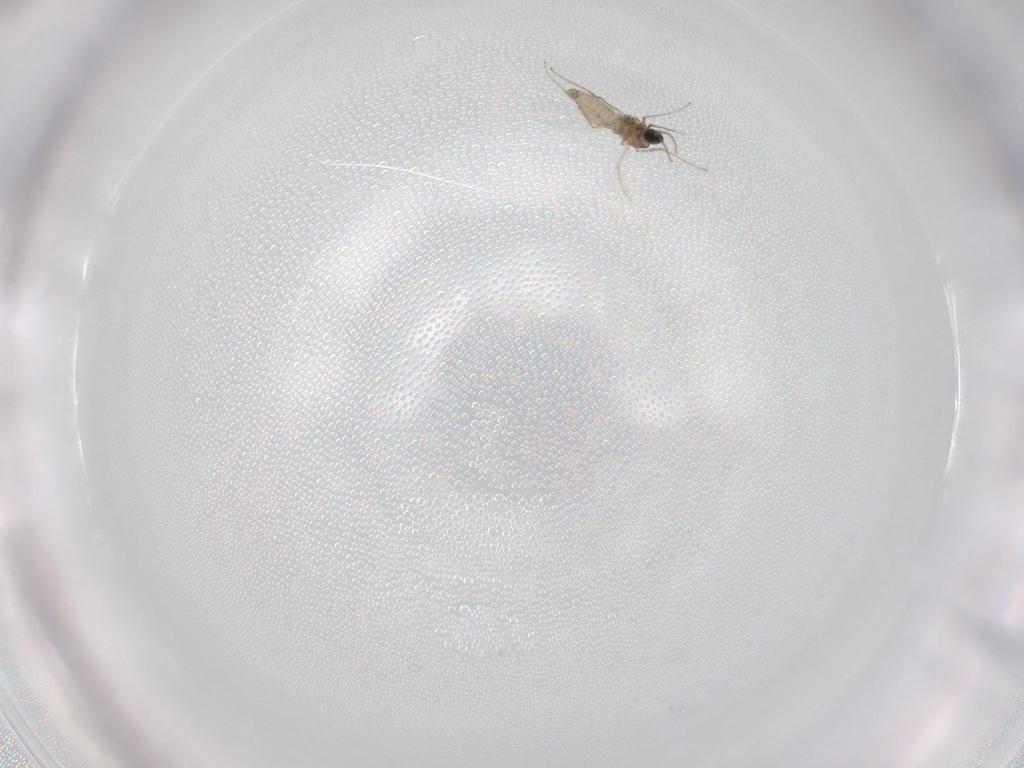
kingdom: Animalia
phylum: Arthropoda
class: Insecta
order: Diptera
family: Cecidomyiidae
